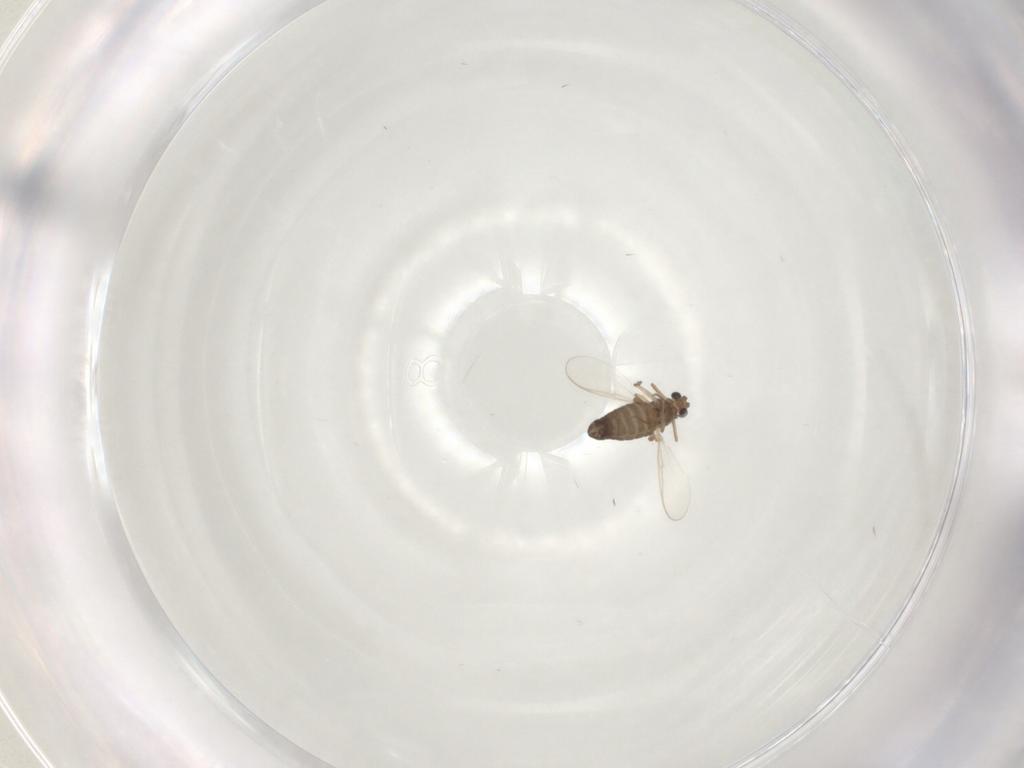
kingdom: Animalia
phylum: Arthropoda
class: Insecta
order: Diptera
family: Chironomidae
